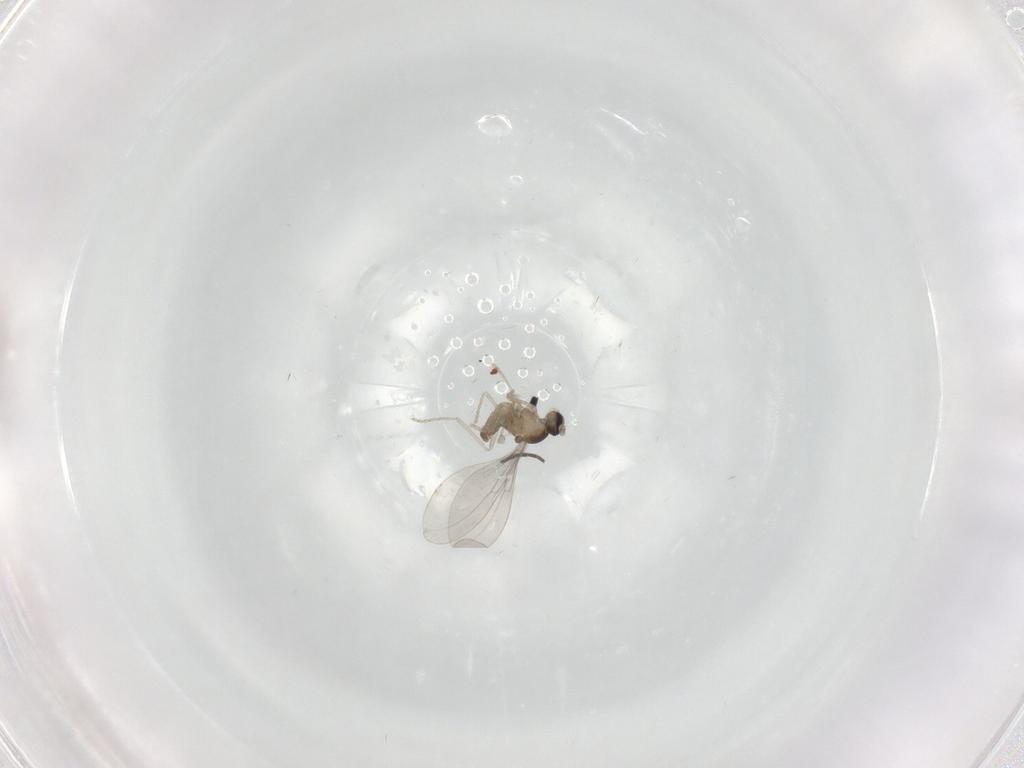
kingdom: Animalia
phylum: Arthropoda
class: Insecta
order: Diptera
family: Cecidomyiidae
